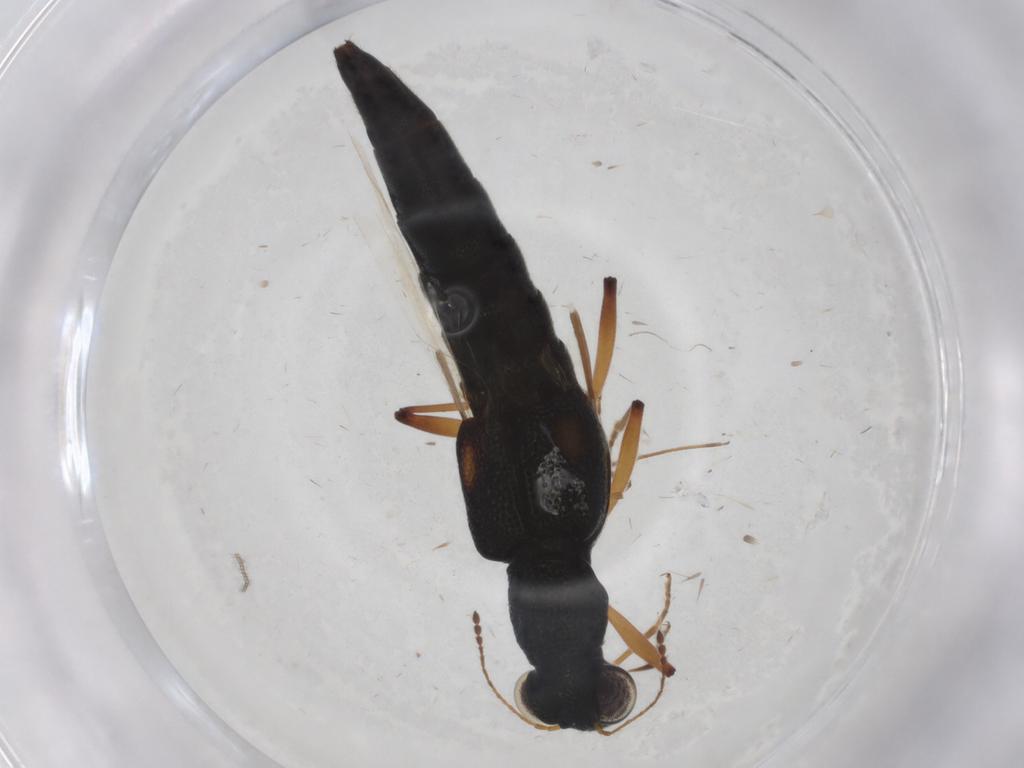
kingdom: Animalia
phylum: Arthropoda
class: Insecta
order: Coleoptera
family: Staphylinidae
